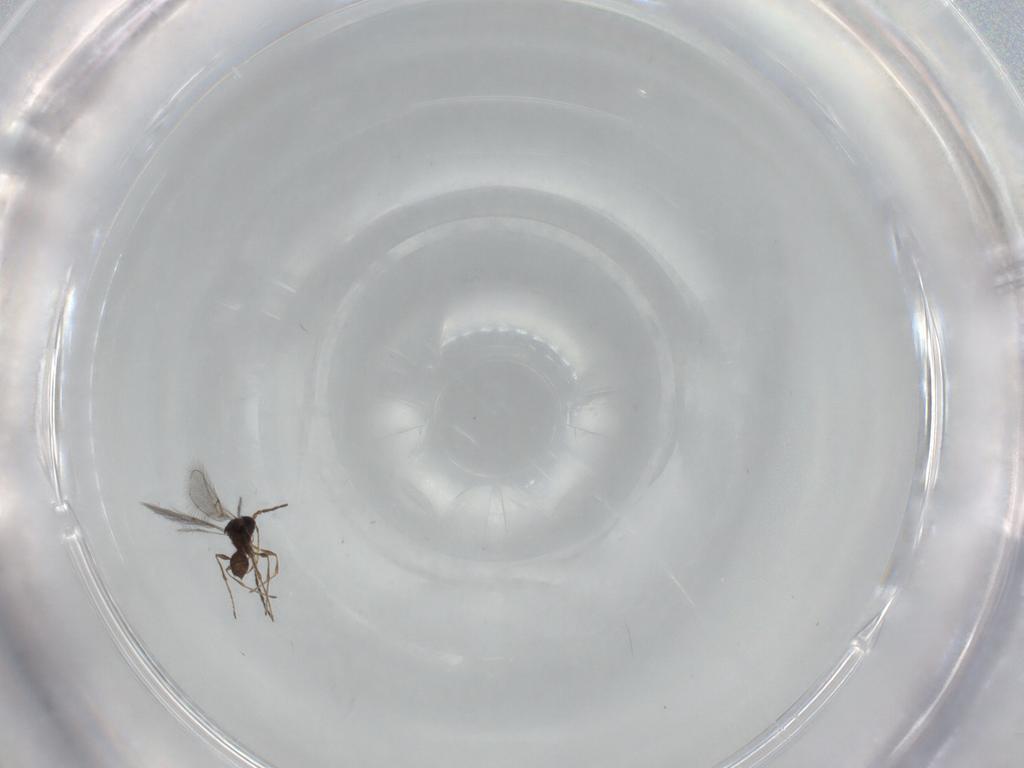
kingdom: Animalia
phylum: Arthropoda
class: Insecta
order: Hymenoptera
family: Diapriidae
